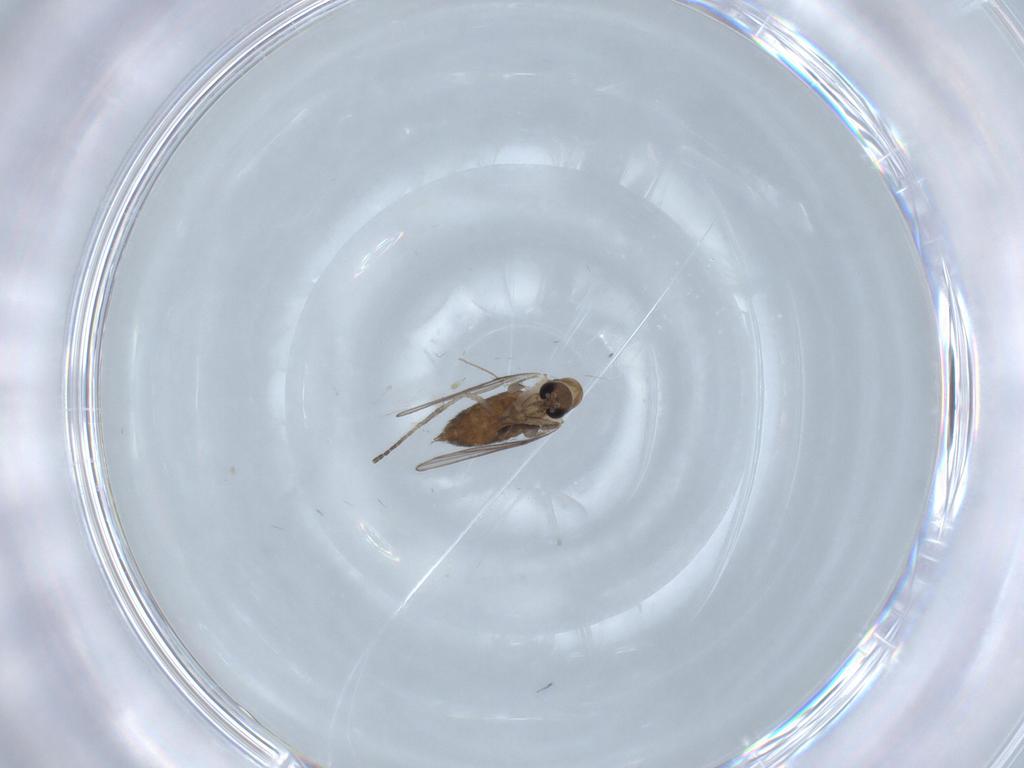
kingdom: Animalia
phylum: Arthropoda
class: Insecta
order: Diptera
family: Chironomidae
